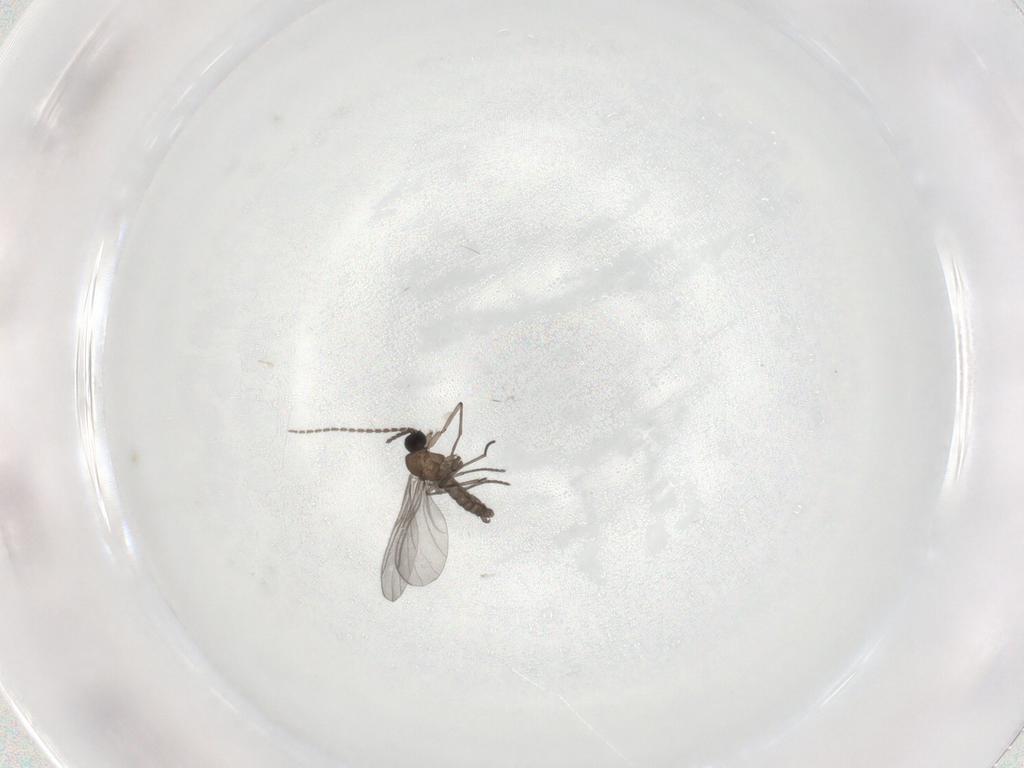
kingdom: Animalia
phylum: Arthropoda
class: Insecta
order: Diptera
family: Sciaridae
